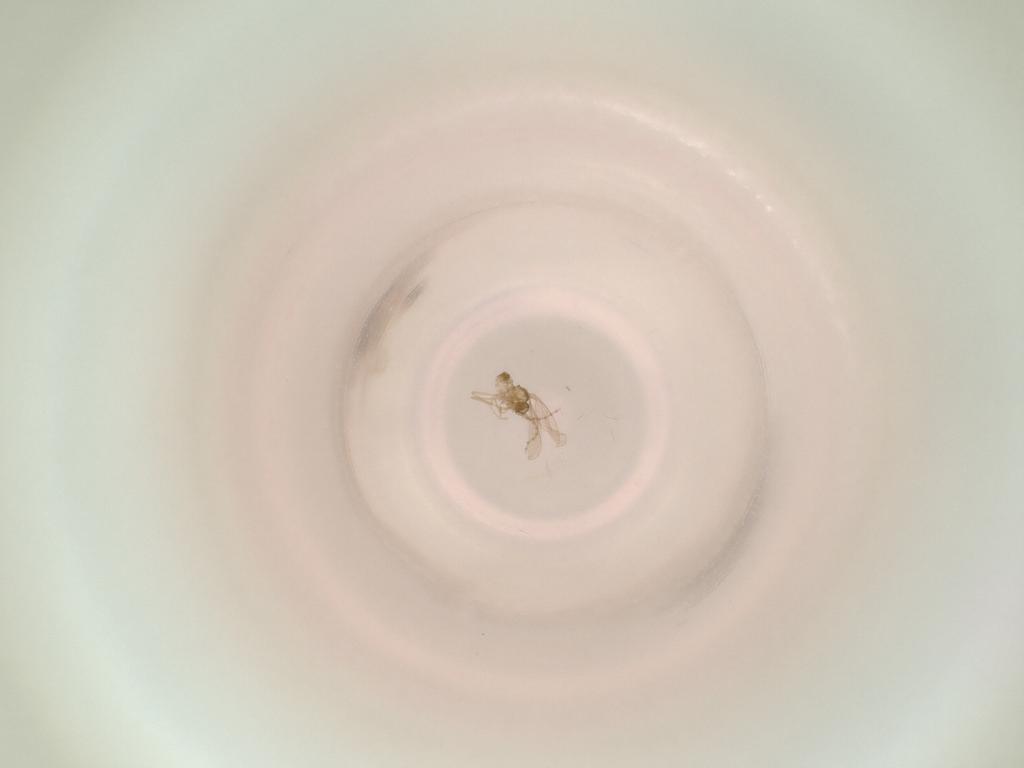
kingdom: Animalia
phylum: Arthropoda
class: Insecta
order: Diptera
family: Cecidomyiidae
